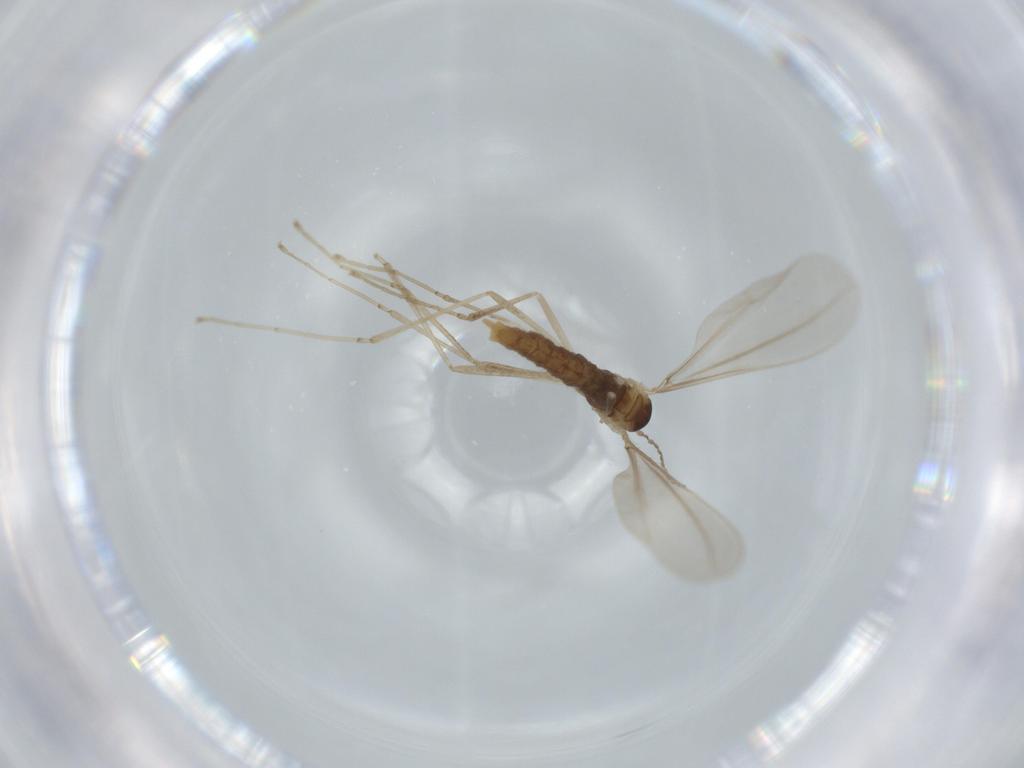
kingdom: Animalia
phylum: Arthropoda
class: Insecta
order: Diptera
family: Cecidomyiidae
